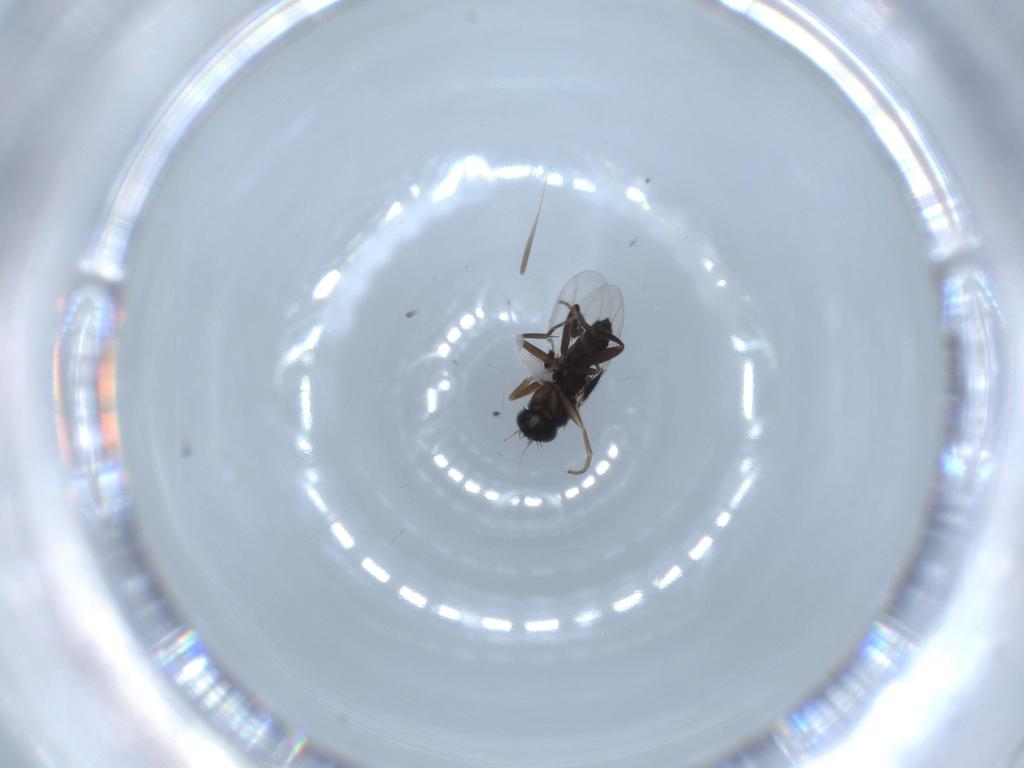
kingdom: Animalia
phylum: Arthropoda
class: Insecta
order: Diptera
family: Phoridae
